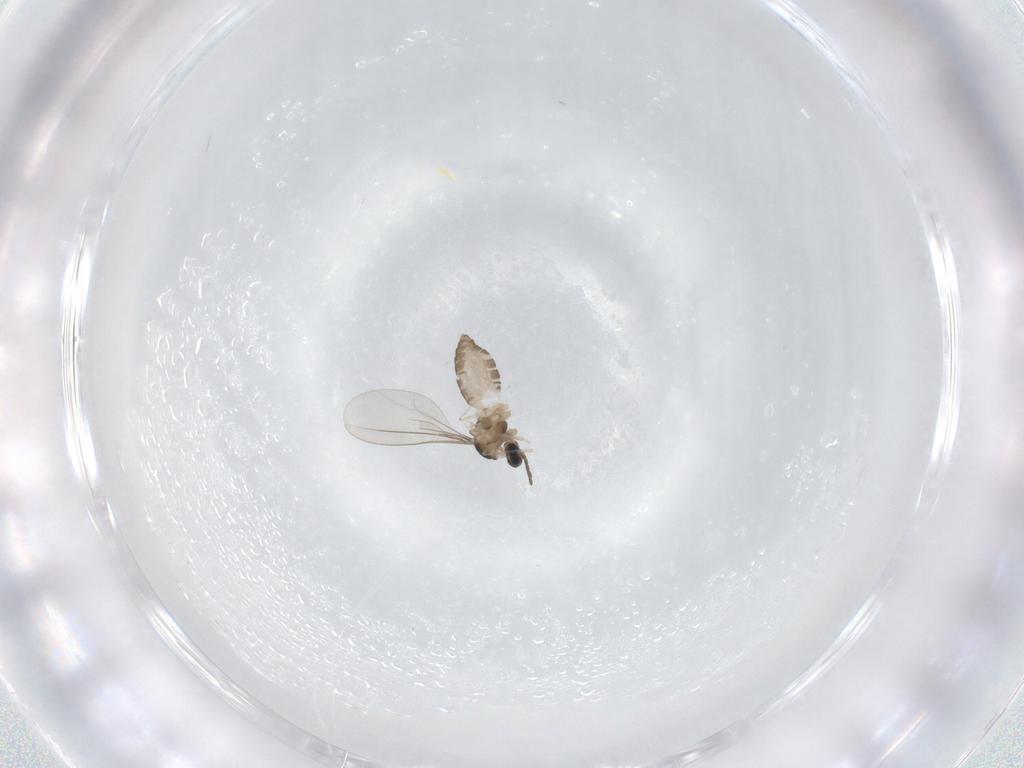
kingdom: Animalia
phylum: Arthropoda
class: Insecta
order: Diptera
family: Cecidomyiidae
